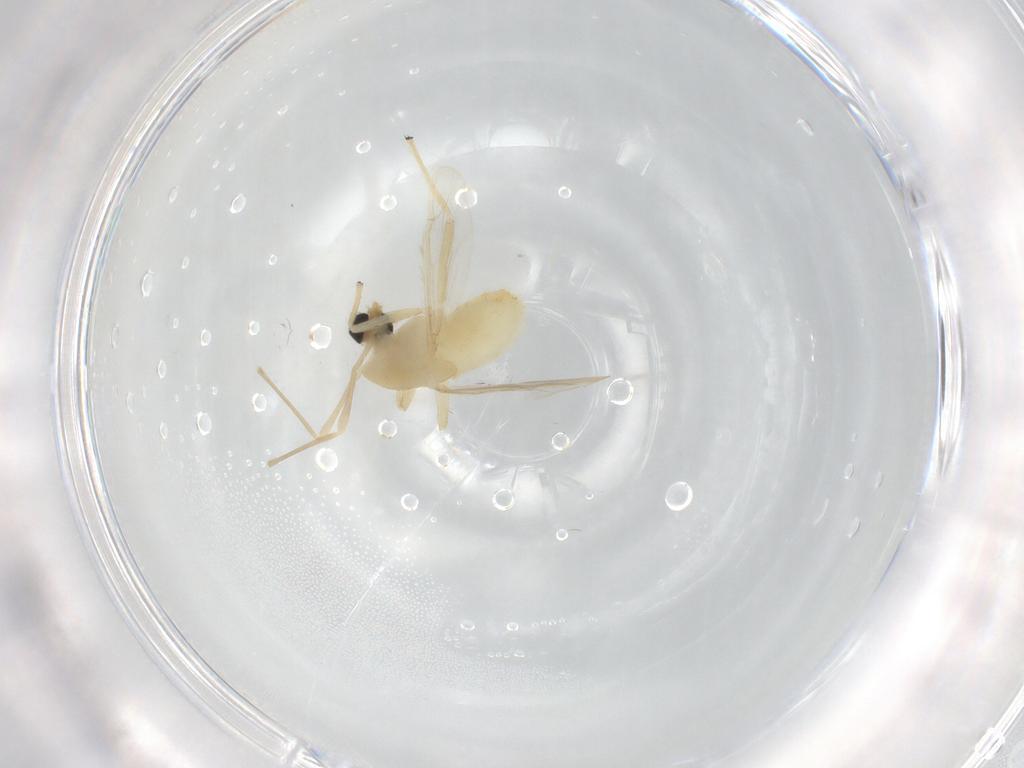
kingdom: Animalia
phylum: Arthropoda
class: Insecta
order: Diptera
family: Chironomidae
